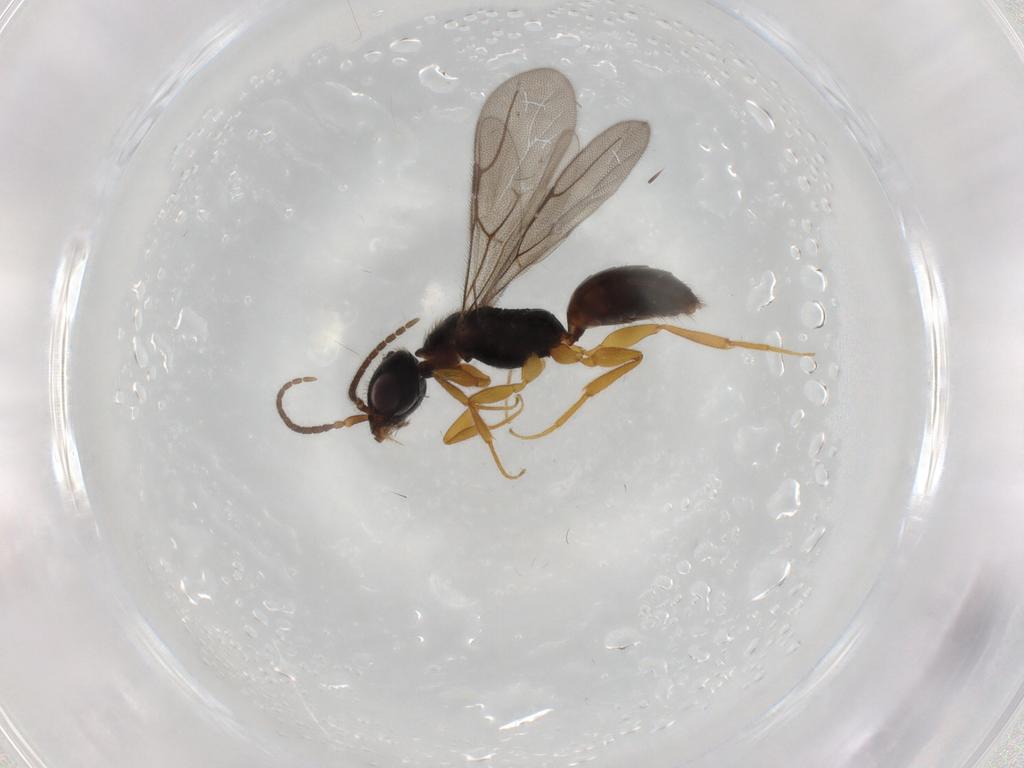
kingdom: Animalia
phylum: Arthropoda
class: Insecta
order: Hymenoptera
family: Bethylidae
